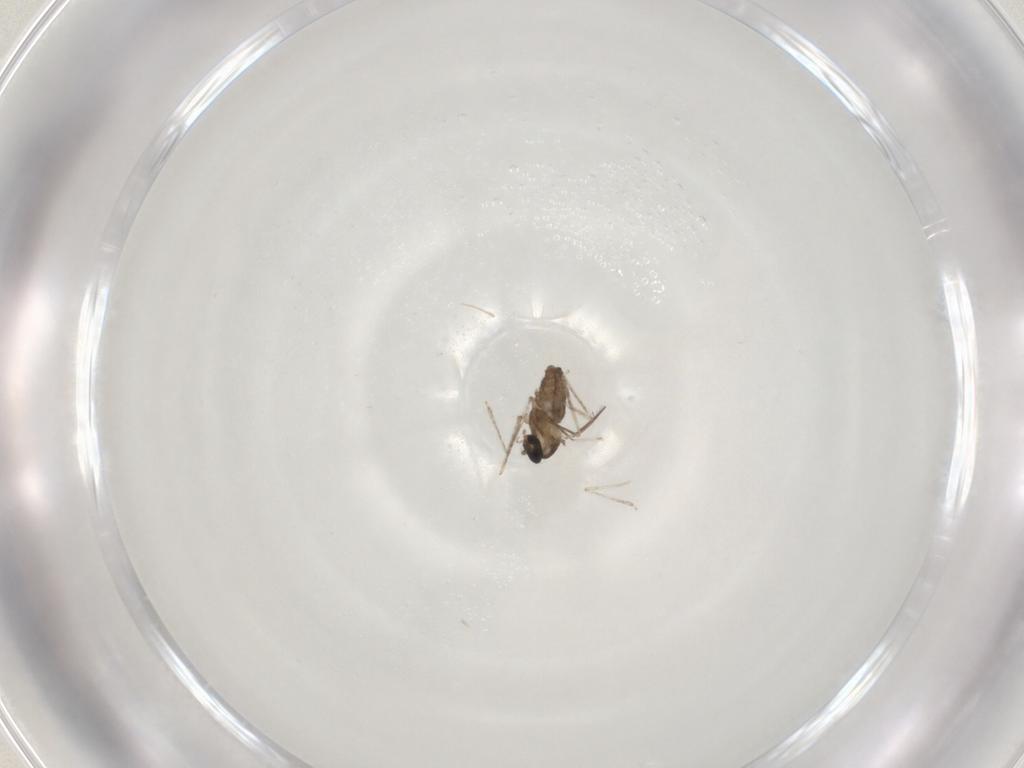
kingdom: Animalia
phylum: Arthropoda
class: Insecta
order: Diptera
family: Cecidomyiidae
